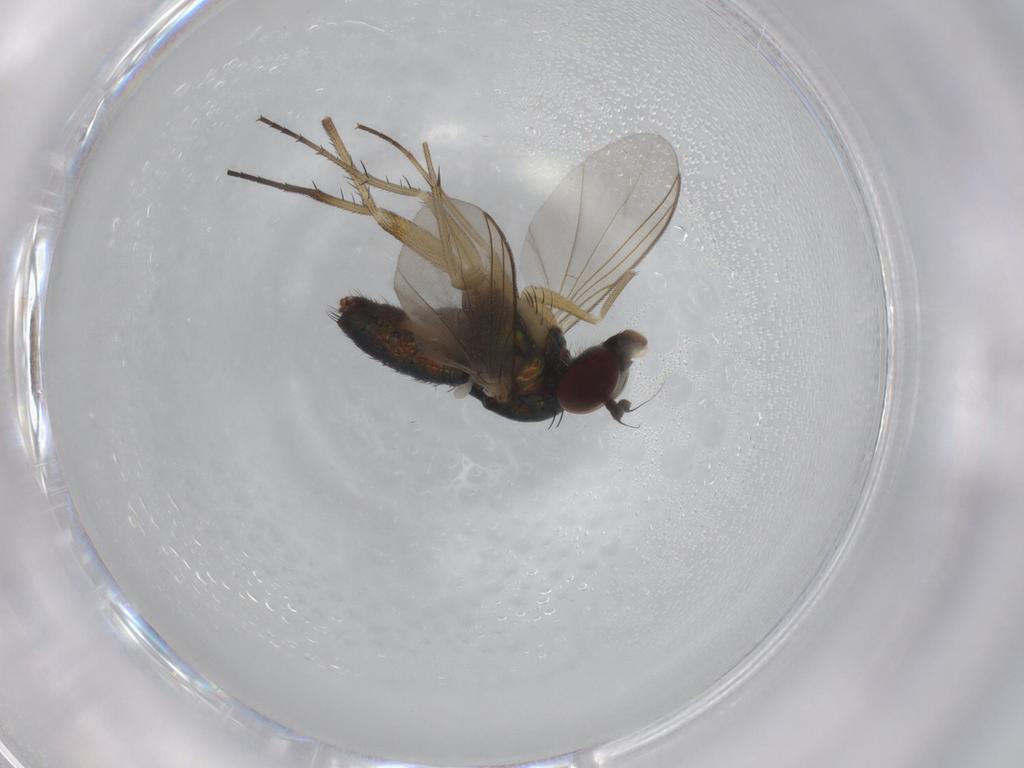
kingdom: Animalia
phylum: Arthropoda
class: Insecta
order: Diptera
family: Dolichopodidae
